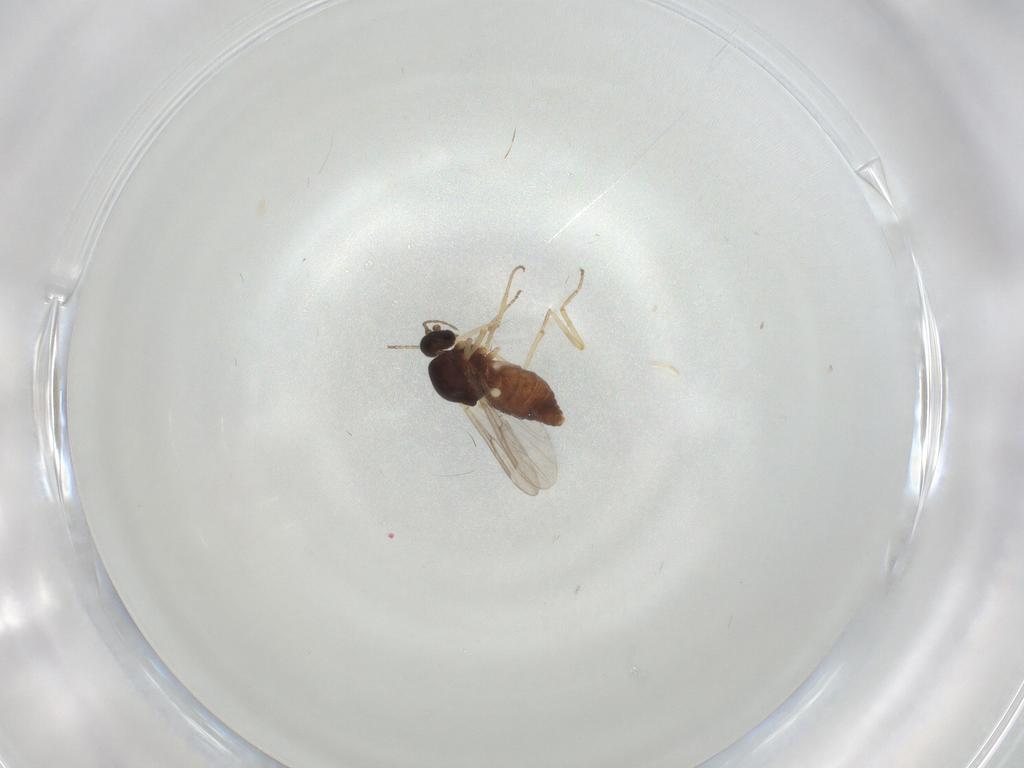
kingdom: Animalia
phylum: Arthropoda
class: Insecta
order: Diptera
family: Ceratopogonidae
